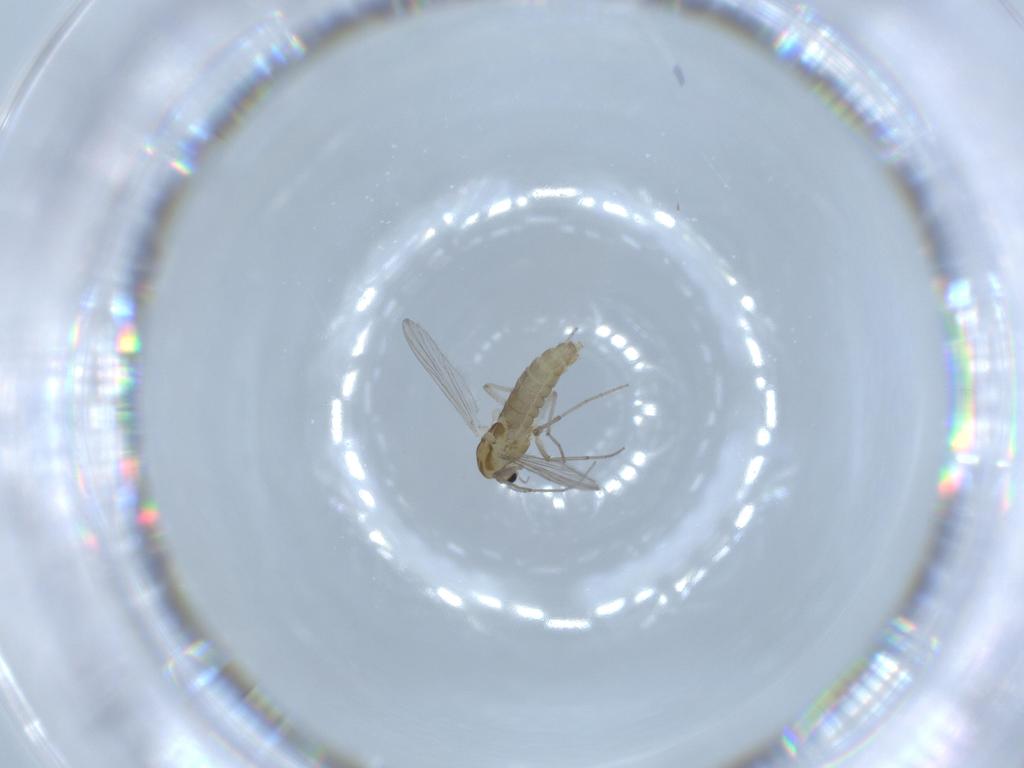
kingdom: Animalia
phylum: Arthropoda
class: Insecta
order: Diptera
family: Chironomidae
